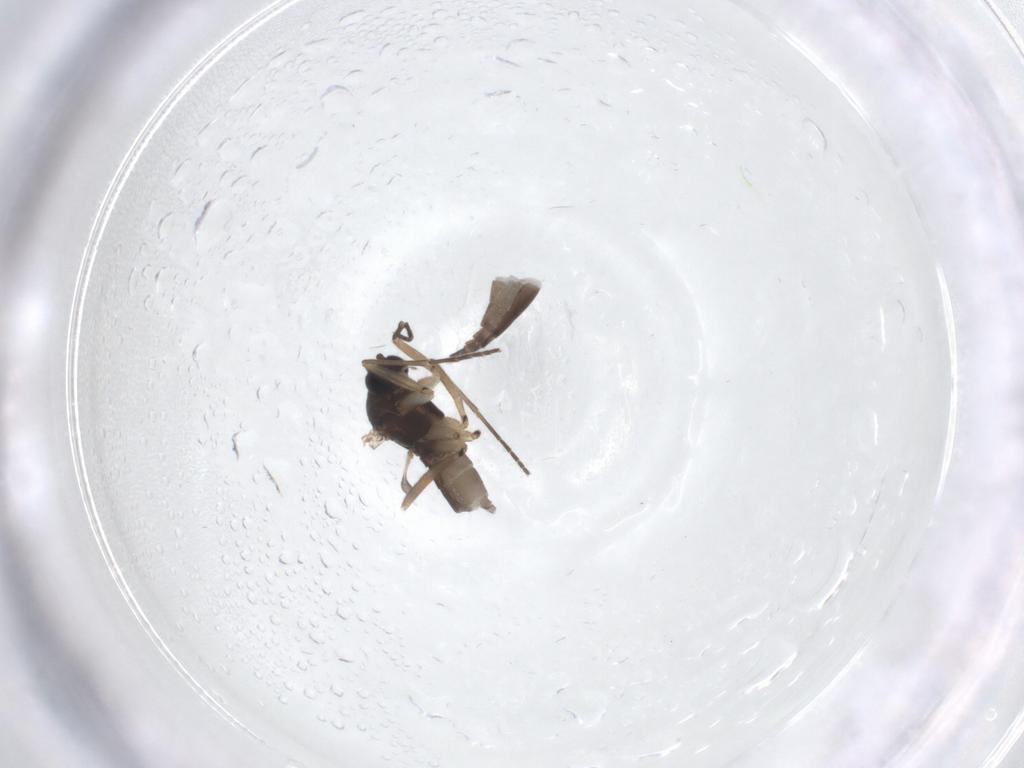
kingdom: Animalia
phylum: Arthropoda
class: Insecta
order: Diptera
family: Sciaridae
